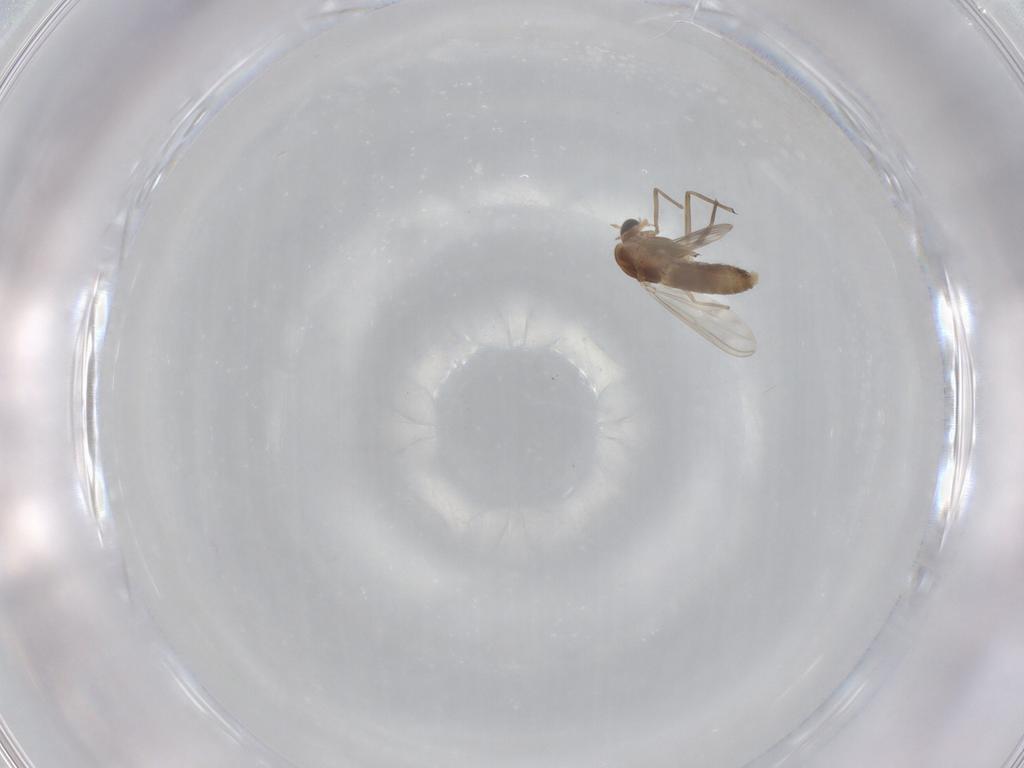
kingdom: Animalia
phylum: Arthropoda
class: Insecta
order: Diptera
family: Chironomidae
